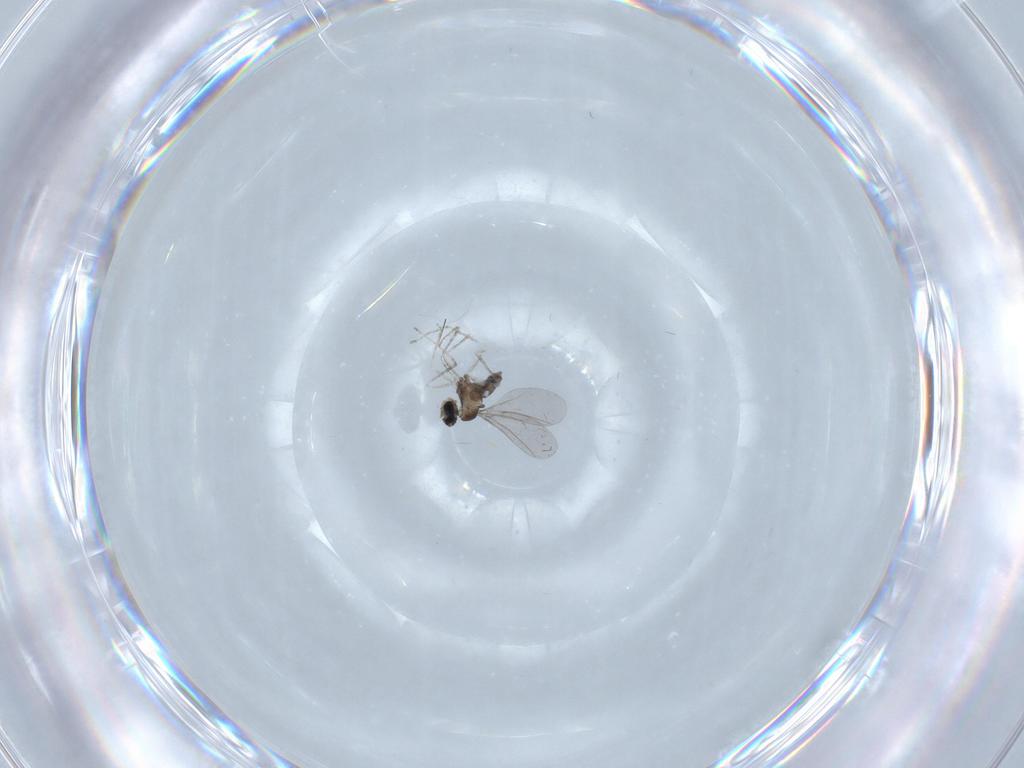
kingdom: Animalia
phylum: Arthropoda
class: Insecta
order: Diptera
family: Cecidomyiidae
